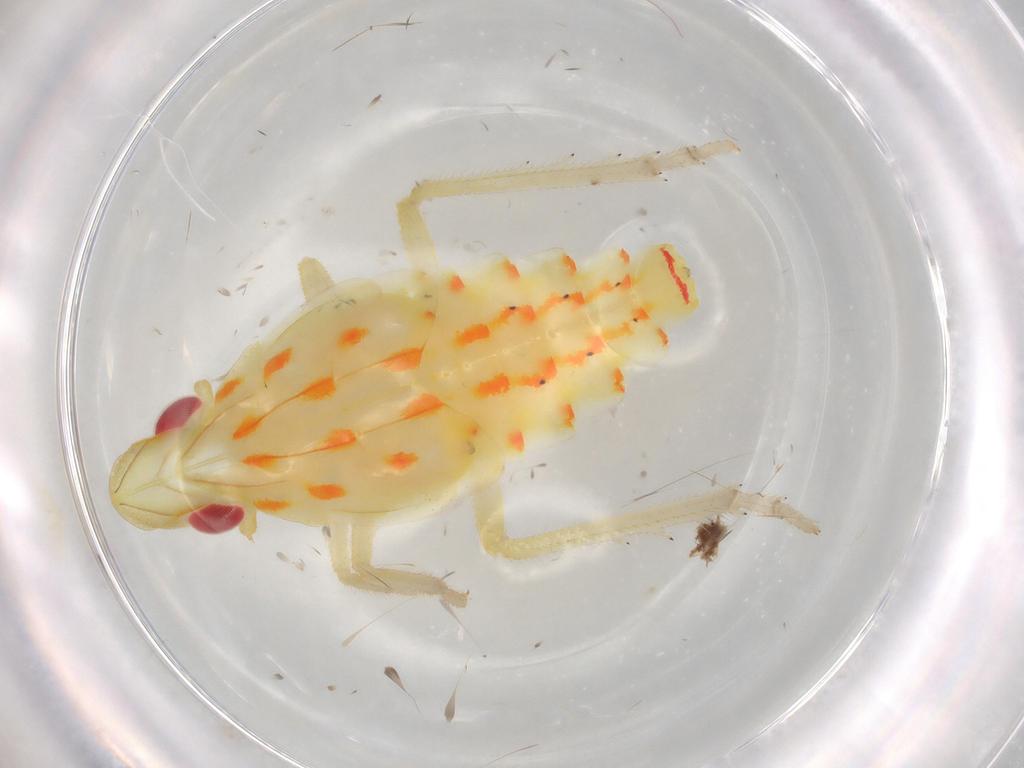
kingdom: Animalia
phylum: Arthropoda
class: Insecta
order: Hemiptera
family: Tropiduchidae
